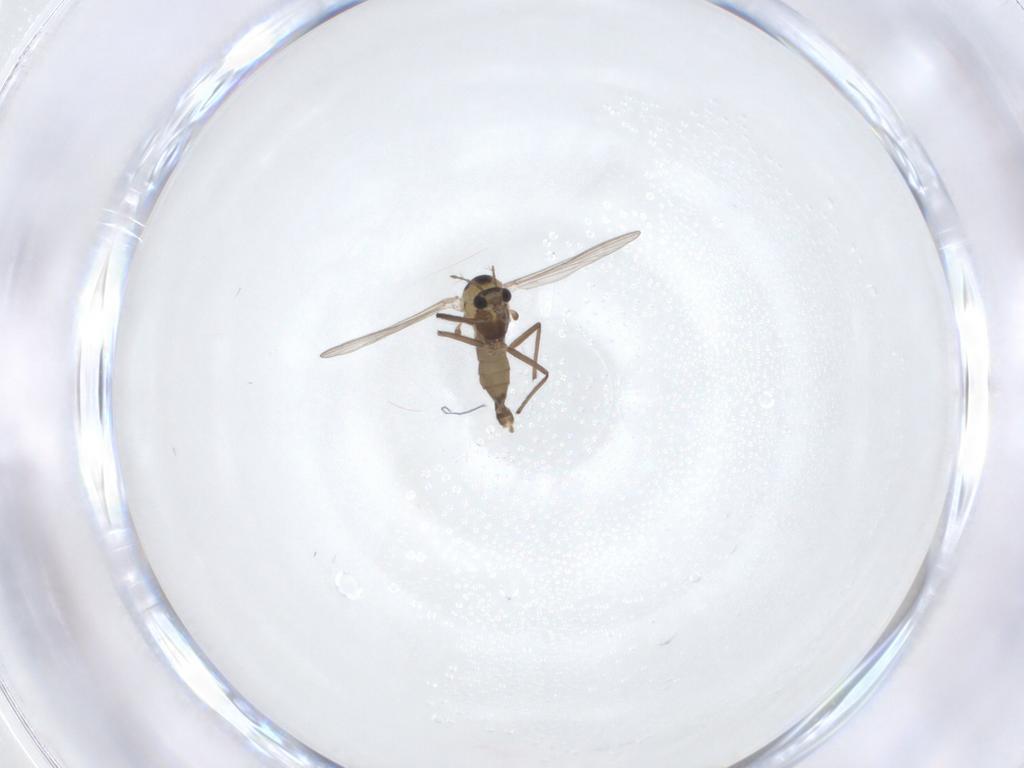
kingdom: Animalia
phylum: Arthropoda
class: Insecta
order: Diptera
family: Chironomidae
